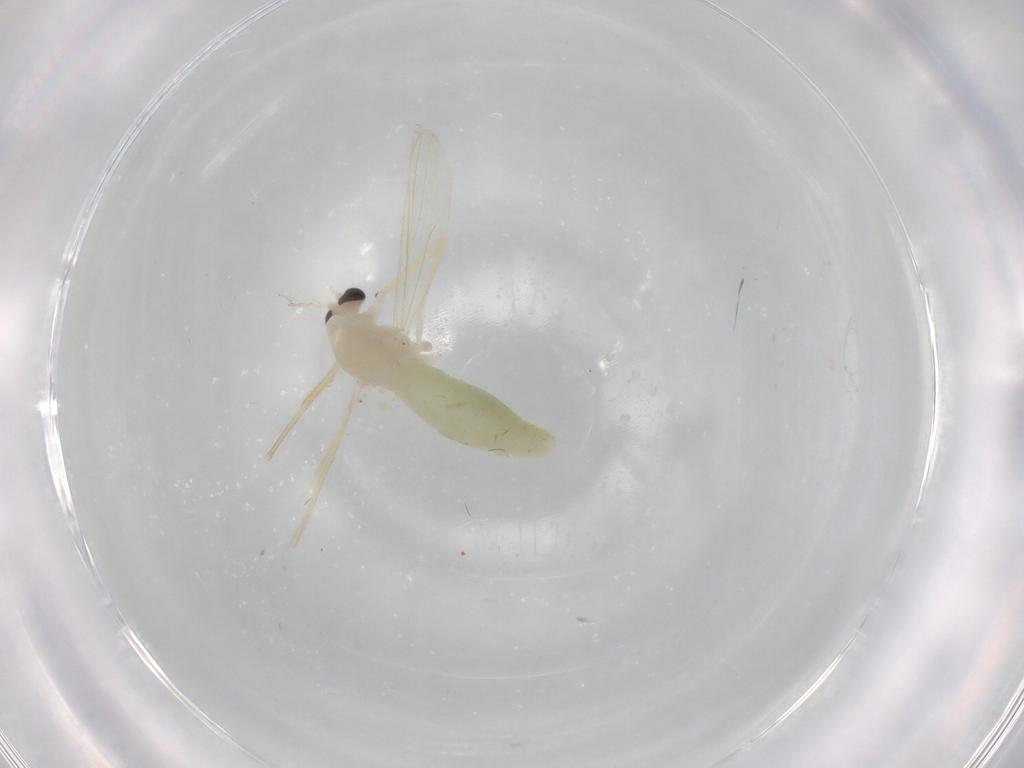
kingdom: Animalia
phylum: Arthropoda
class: Insecta
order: Diptera
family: Chironomidae
